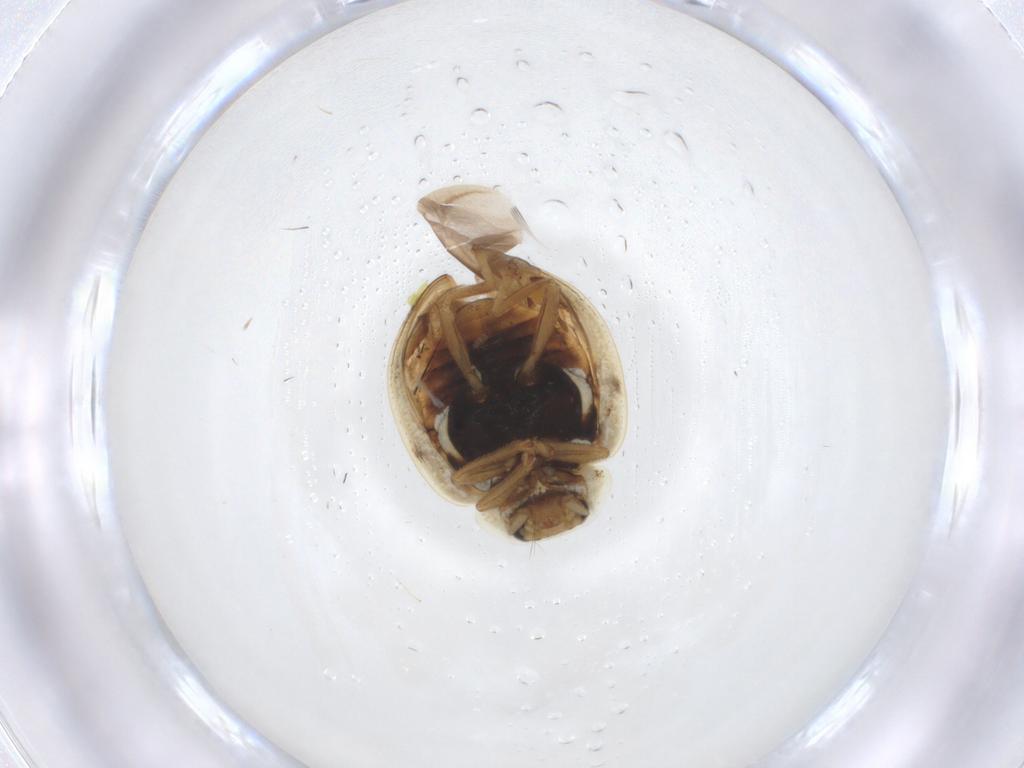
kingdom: Animalia
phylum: Arthropoda
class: Insecta
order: Coleoptera
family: Coccinellidae
